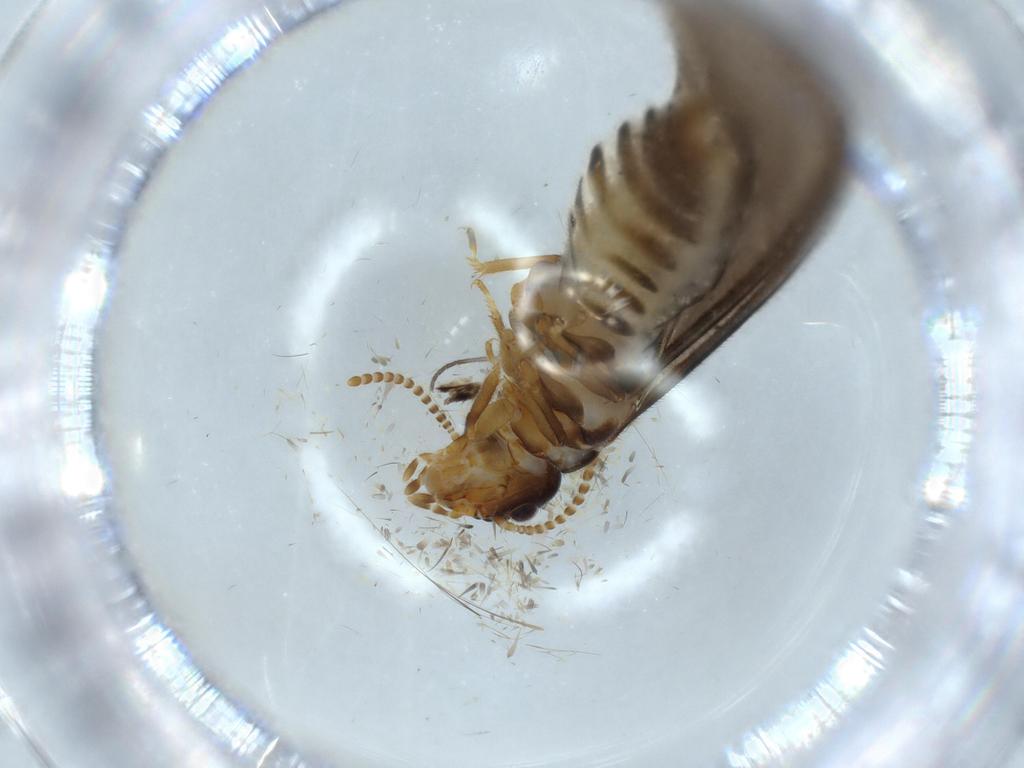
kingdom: Animalia
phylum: Arthropoda
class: Insecta
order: Blattodea
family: Termitidae
